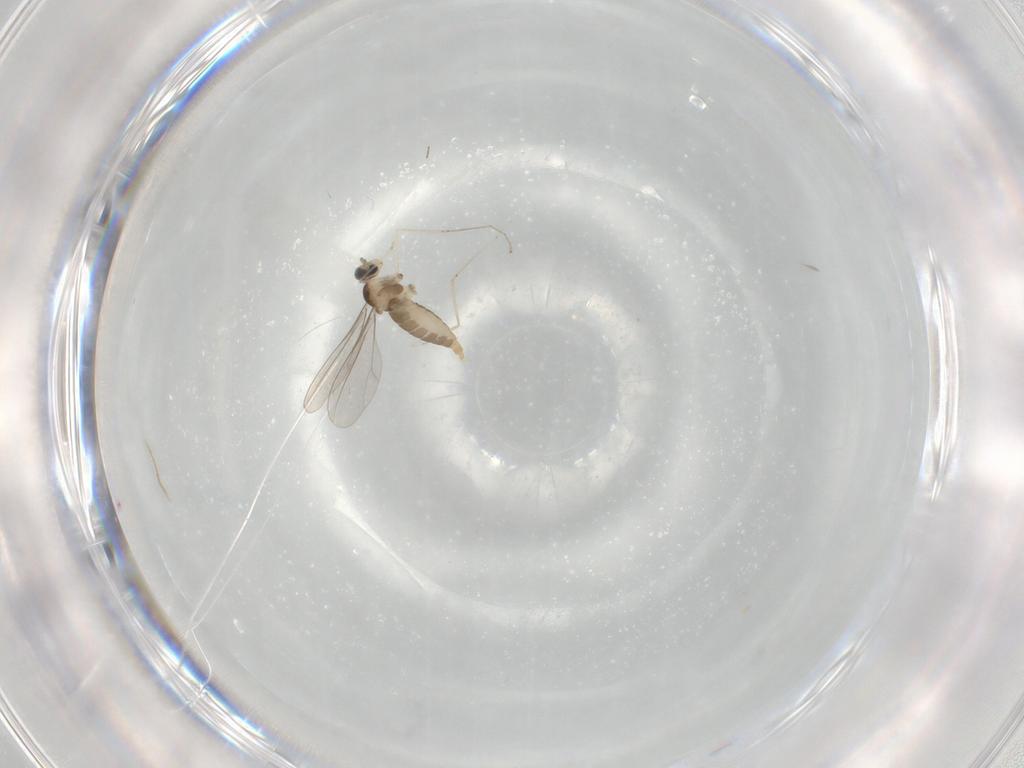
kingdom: Animalia
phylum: Arthropoda
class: Insecta
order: Diptera
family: Cecidomyiidae
